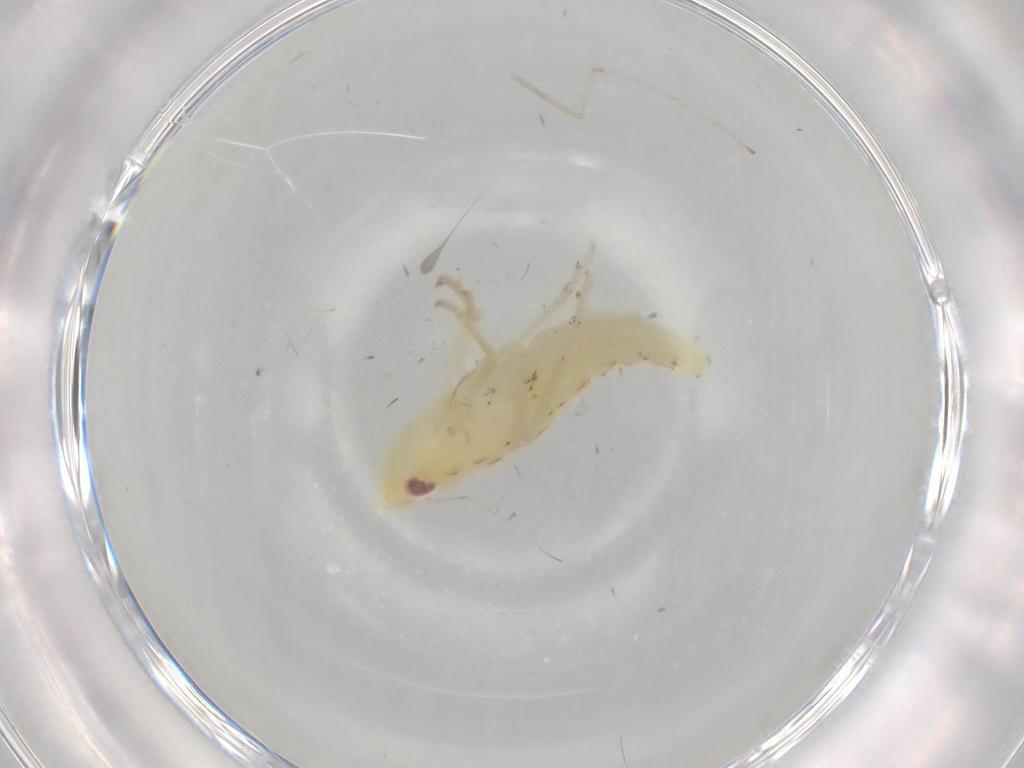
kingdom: Animalia
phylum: Arthropoda
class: Insecta
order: Hemiptera
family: Tropiduchidae
